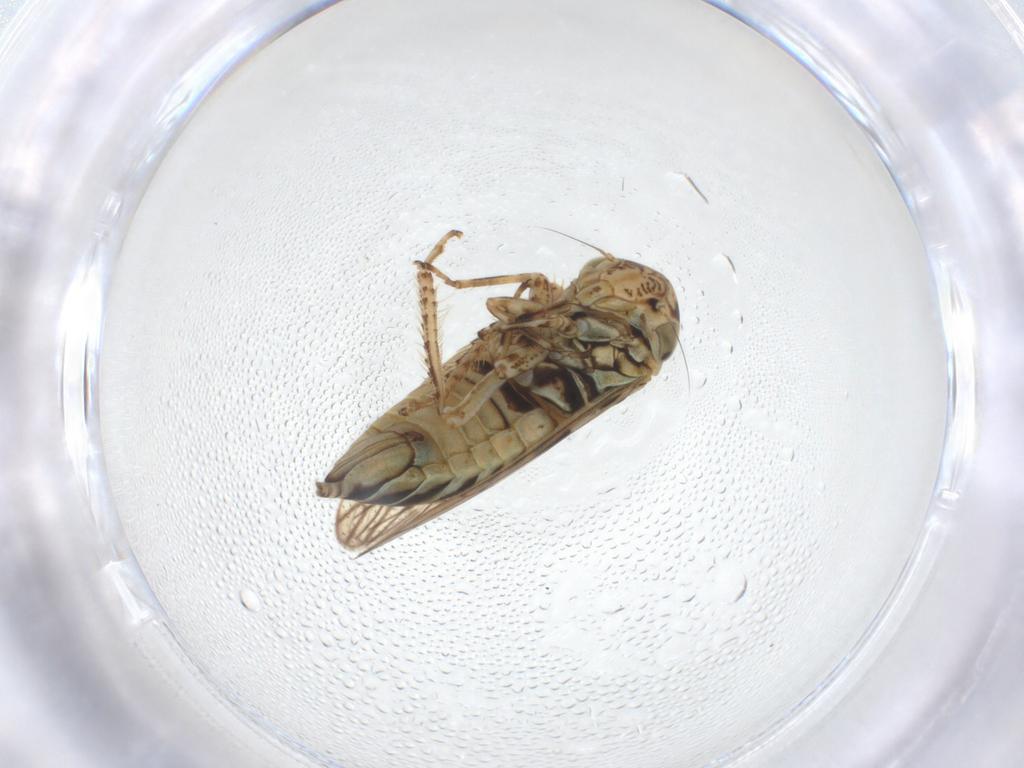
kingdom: Animalia
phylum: Arthropoda
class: Insecta
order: Hemiptera
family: Cicadellidae
